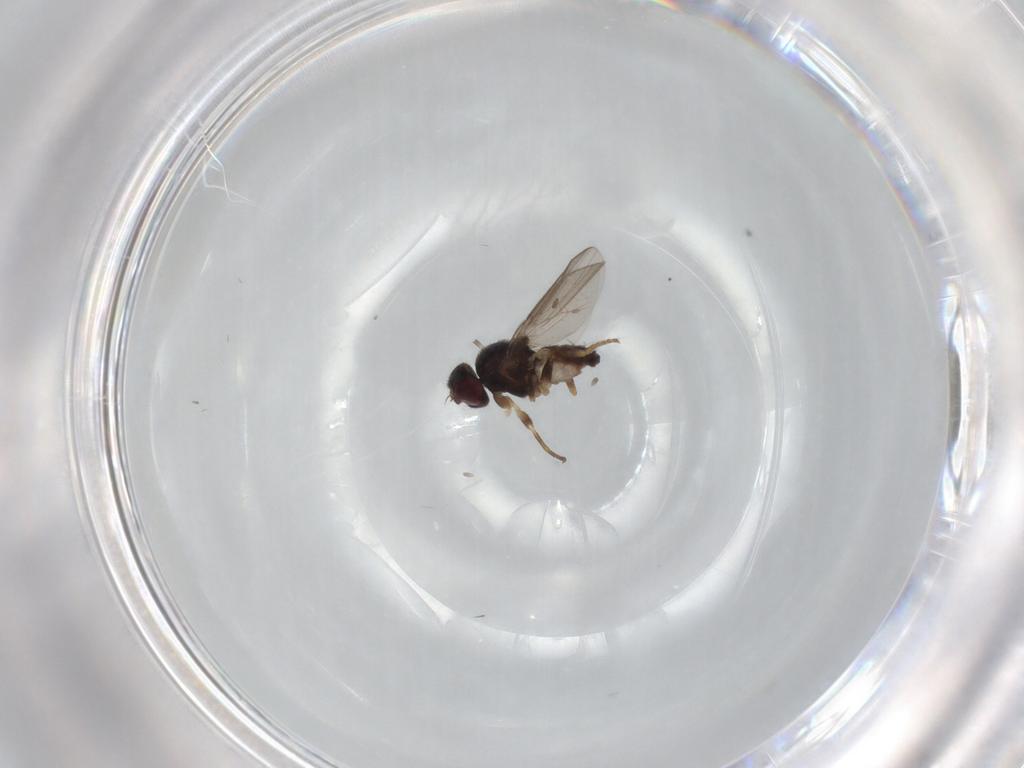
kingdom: Animalia
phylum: Arthropoda
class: Insecta
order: Diptera
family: Chloropidae
